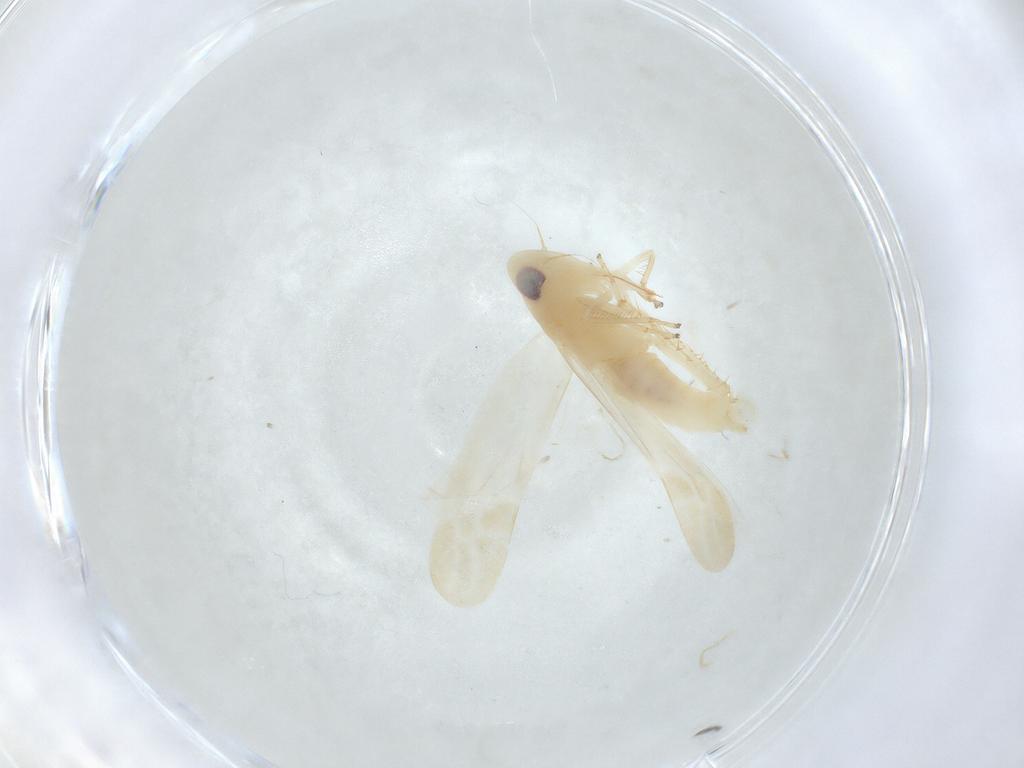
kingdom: Animalia
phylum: Arthropoda
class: Insecta
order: Hemiptera
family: Cicadellidae
